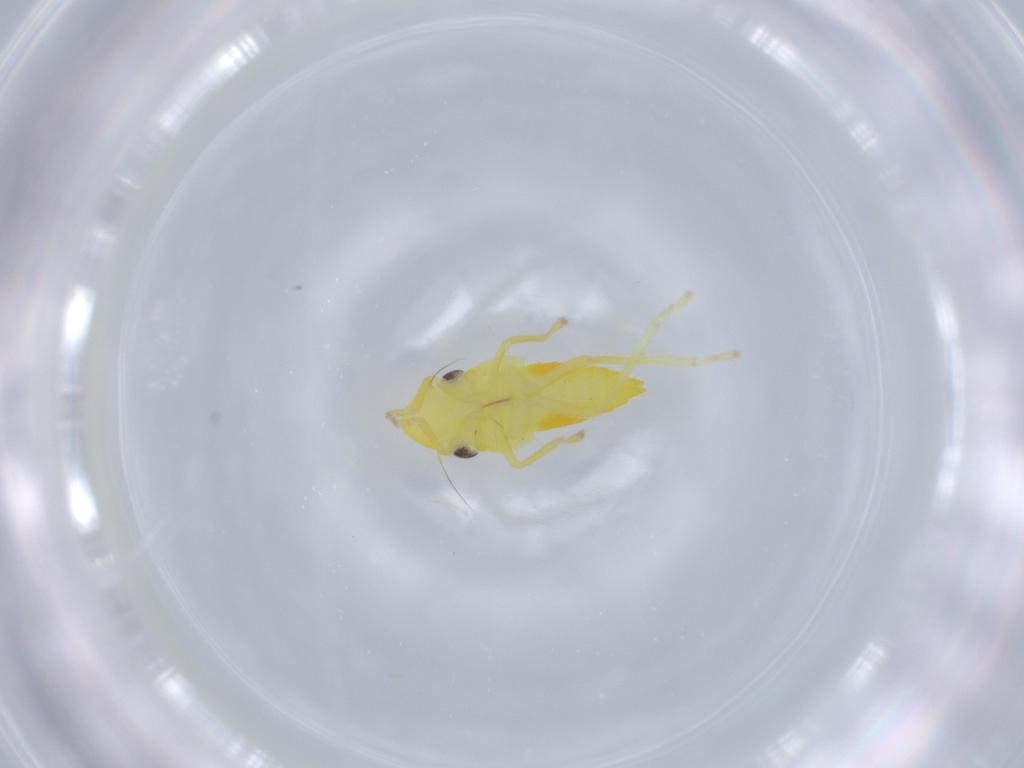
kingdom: Animalia
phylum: Arthropoda
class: Insecta
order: Hemiptera
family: Cicadellidae
